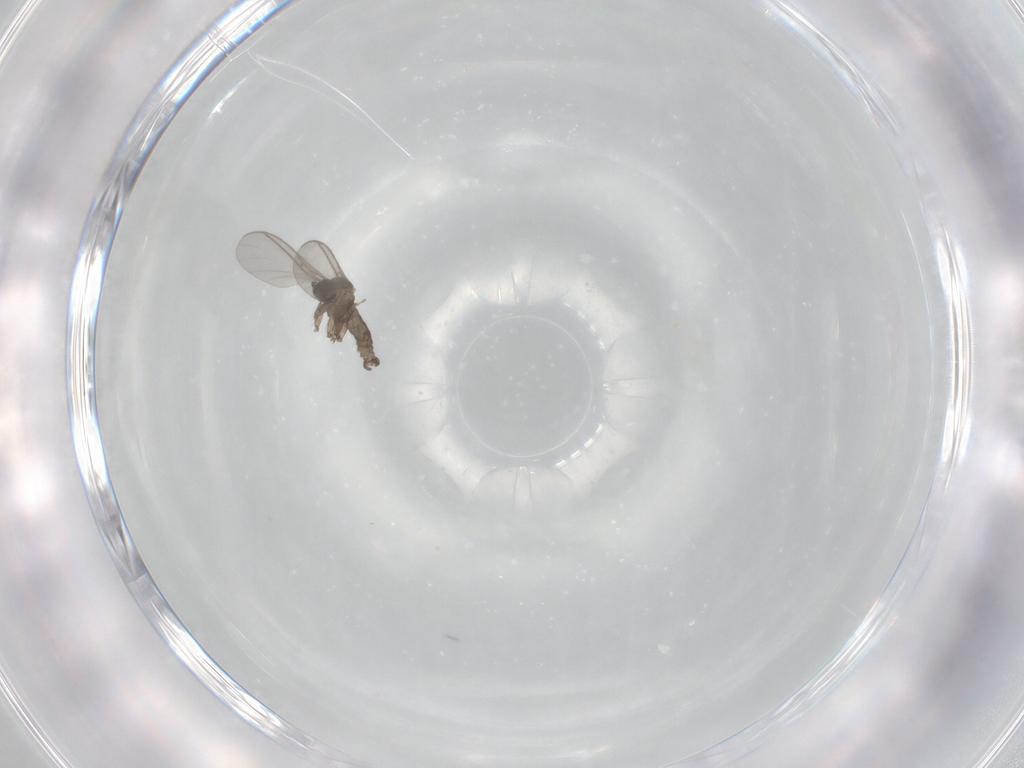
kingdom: Animalia
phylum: Arthropoda
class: Insecta
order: Diptera
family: Sciaridae
